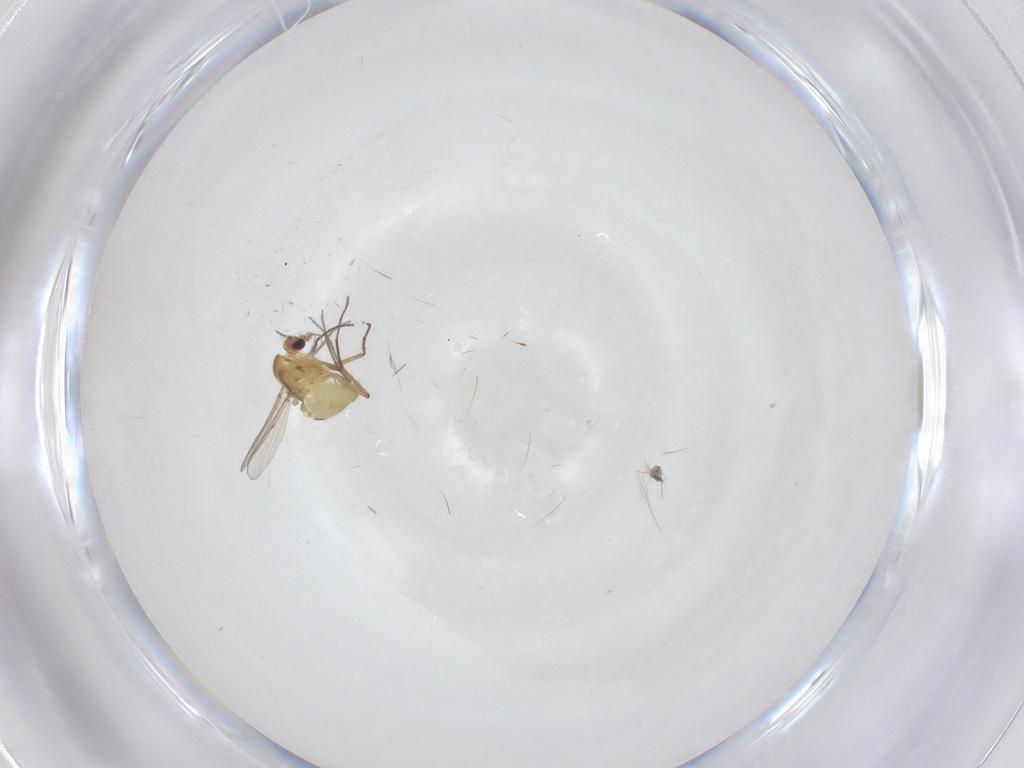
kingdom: Animalia
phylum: Arthropoda
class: Insecta
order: Diptera
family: Chironomidae
